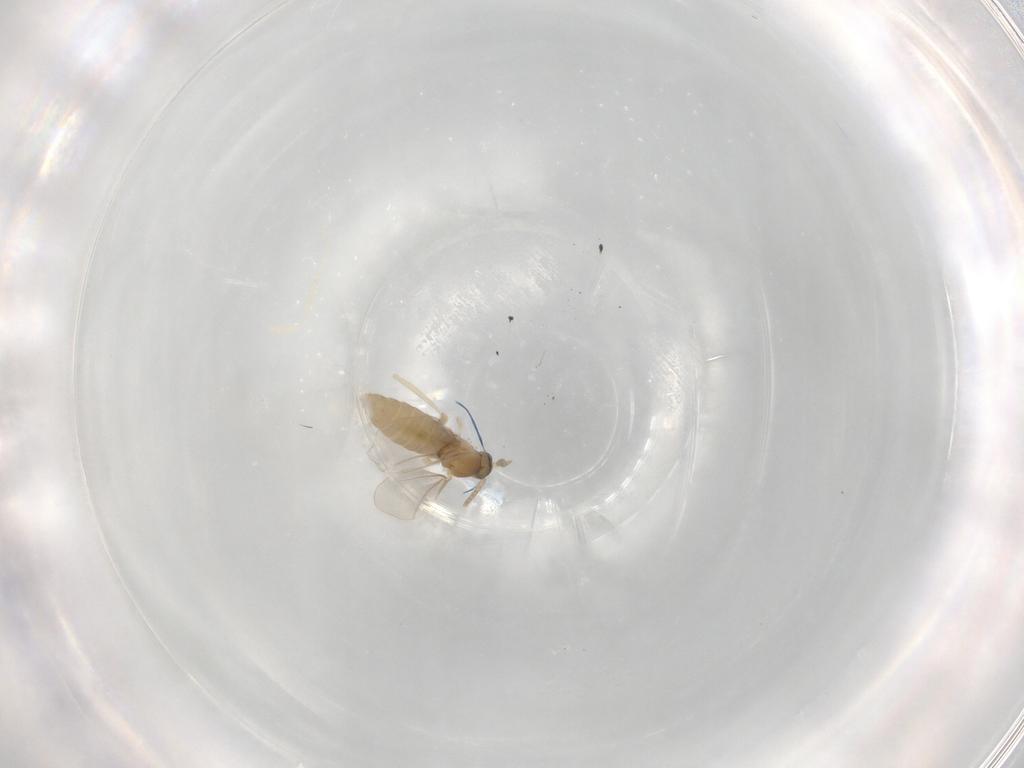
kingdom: Animalia
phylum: Arthropoda
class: Insecta
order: Diptera
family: Cecidomyiidae
